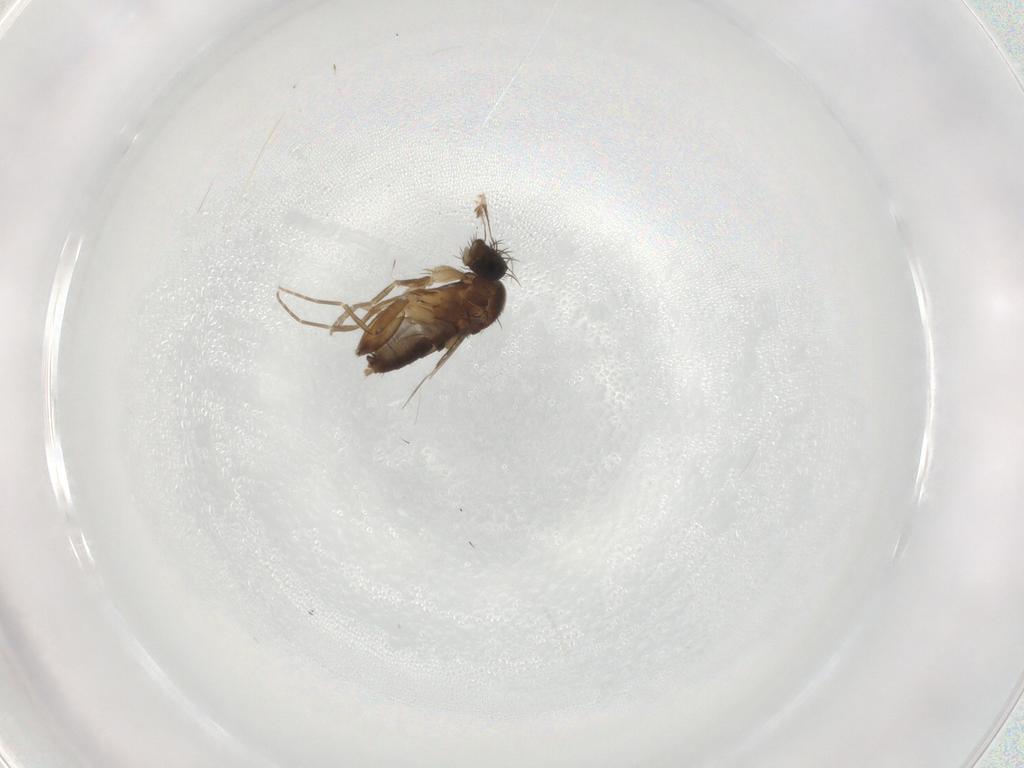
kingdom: Animalia
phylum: Arthropoda
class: Insecta
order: Diptera
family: Phoridae
